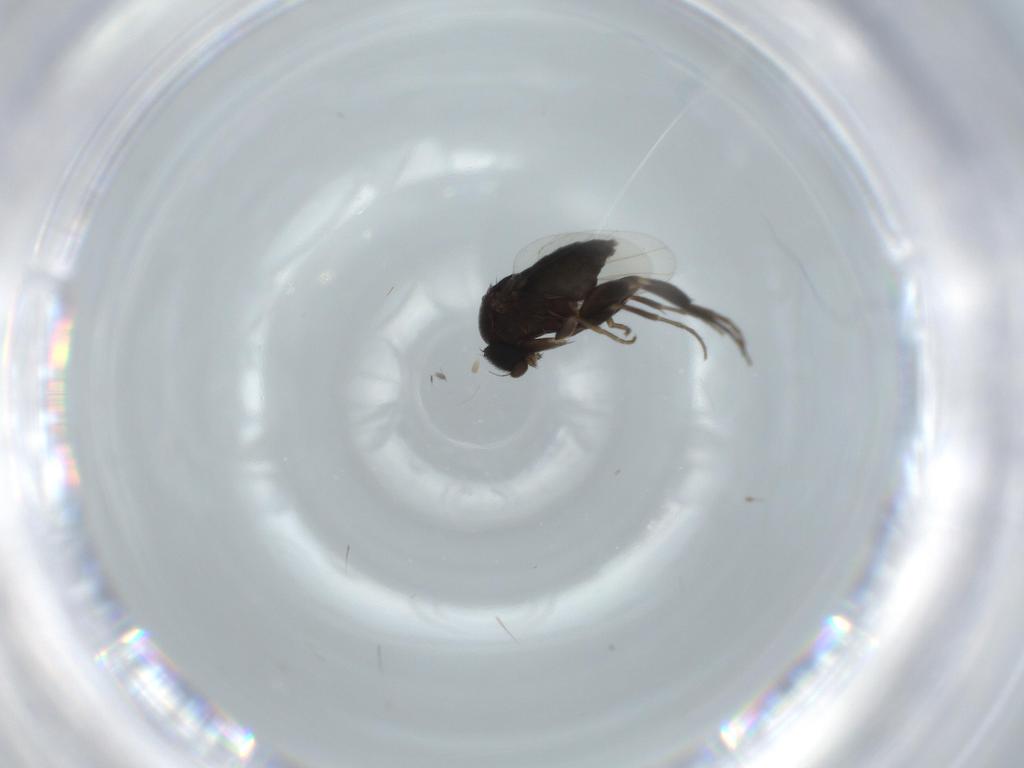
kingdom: Animalia
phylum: Arthropoda
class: Insecta
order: Diptera
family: Phoridae
